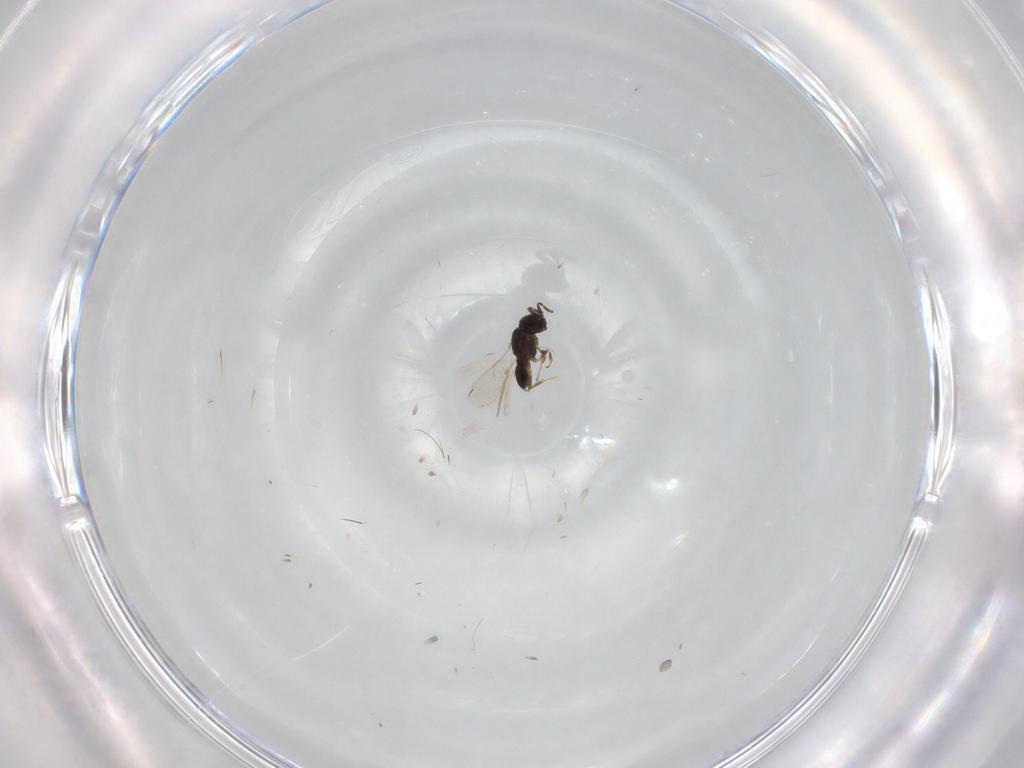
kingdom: Animalia
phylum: Arthropoda
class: Insecta
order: Hymenoptera
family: Scelionidae
